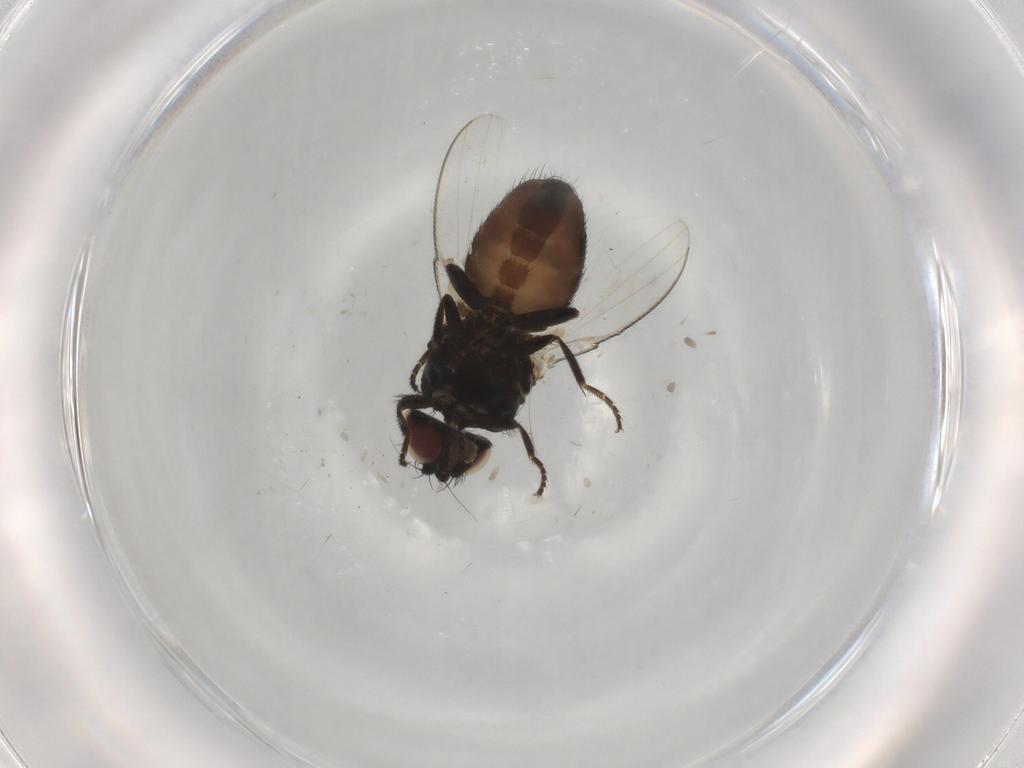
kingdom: Animalia
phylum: Arthropoda
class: Insecta
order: Diptera
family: Milichiidae
